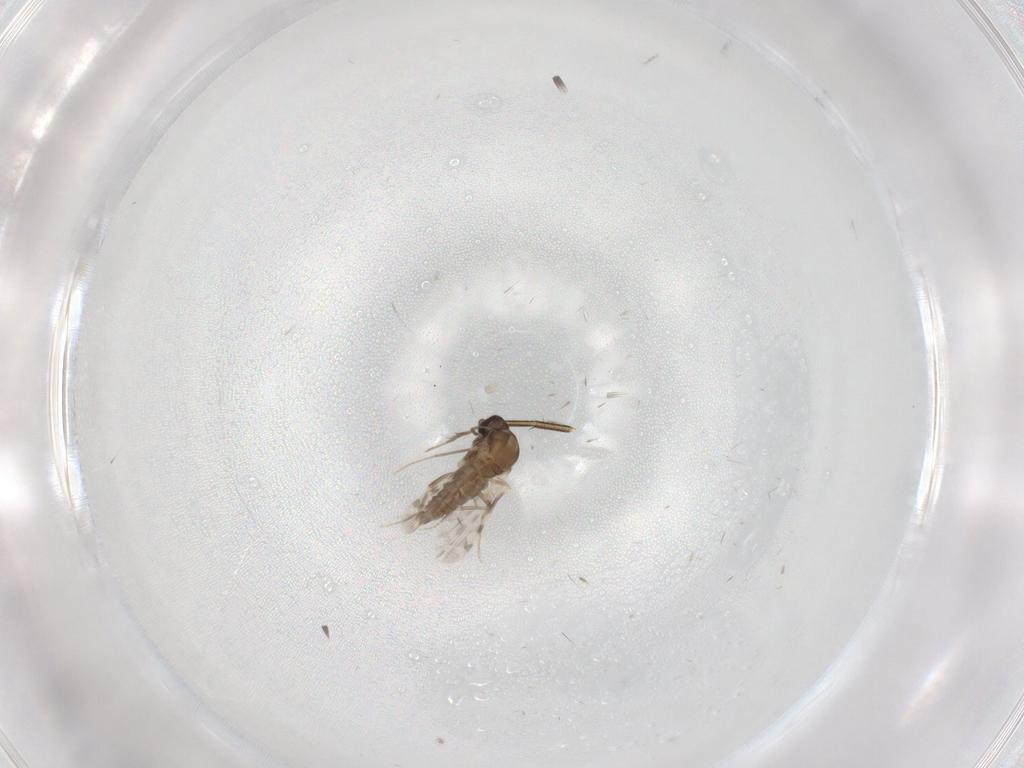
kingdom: Animalia
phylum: Arthropoda
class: Insecta
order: Diptera
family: Ceratopogonidae
